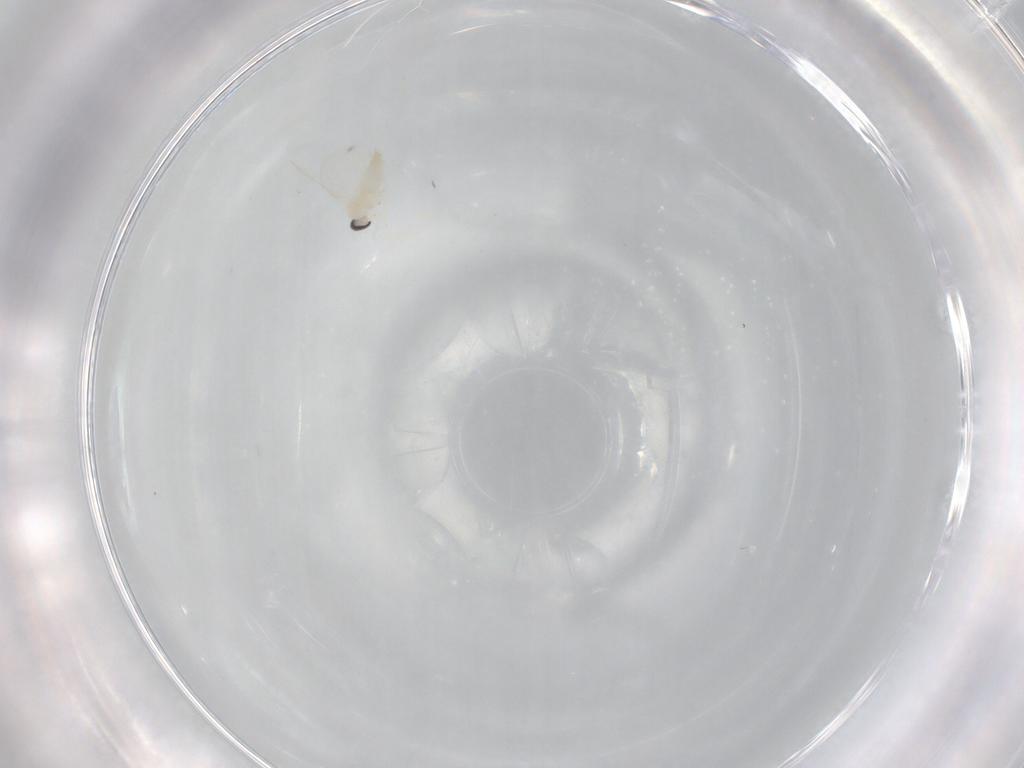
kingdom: Animalia
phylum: Arthropoda
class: Insecta
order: Diptera
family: Cecidomyiidae
